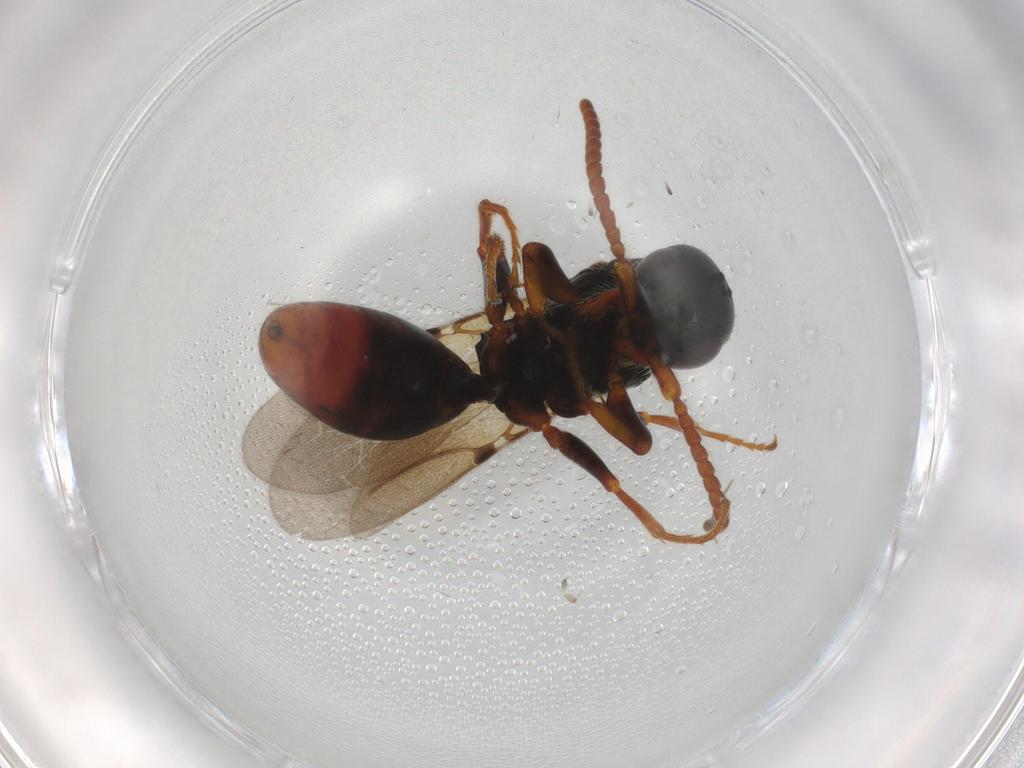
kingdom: Animalia
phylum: Arthropoda
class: Insecta
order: Hymenoptera
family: Bethylidae
